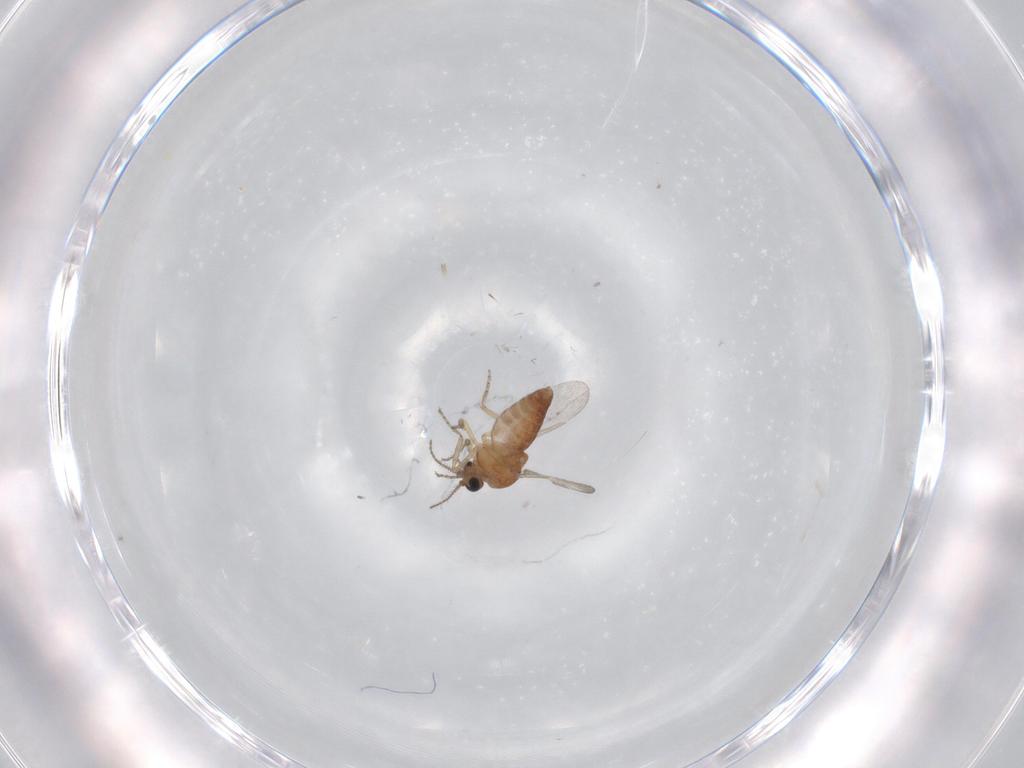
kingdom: Animalia
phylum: Arthropoda
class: Insecta
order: Diptera
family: Ceratopogonidae
